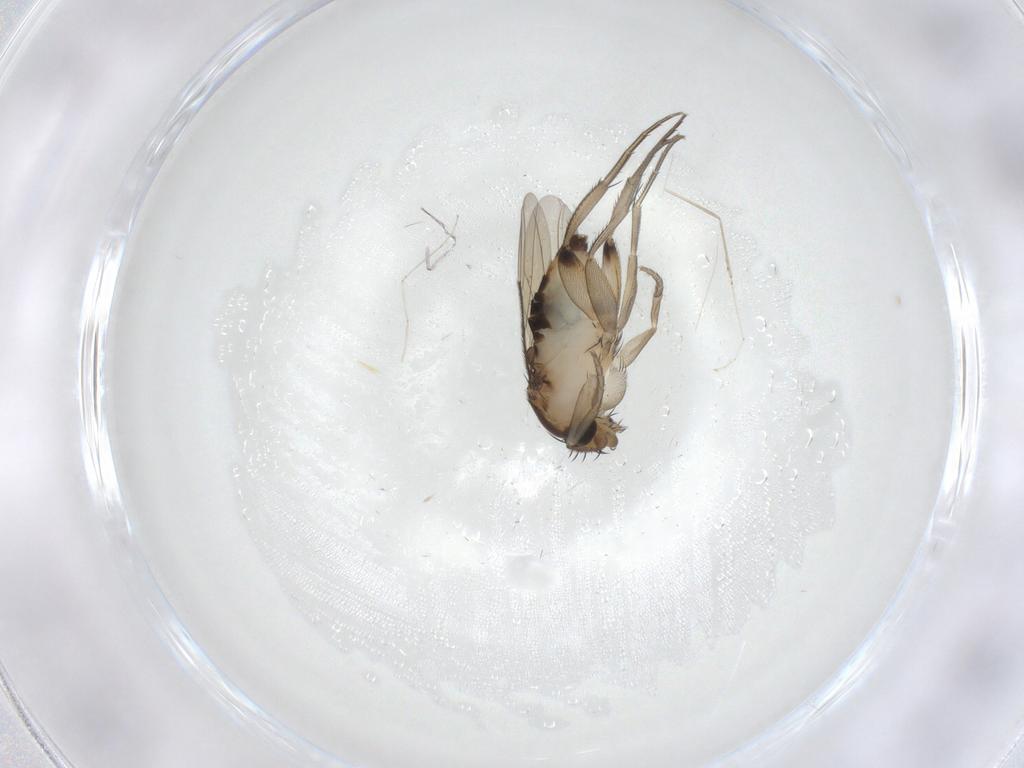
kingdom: Animalia
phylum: Arthropoda
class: Insecta
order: Diptera
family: Phoridae
